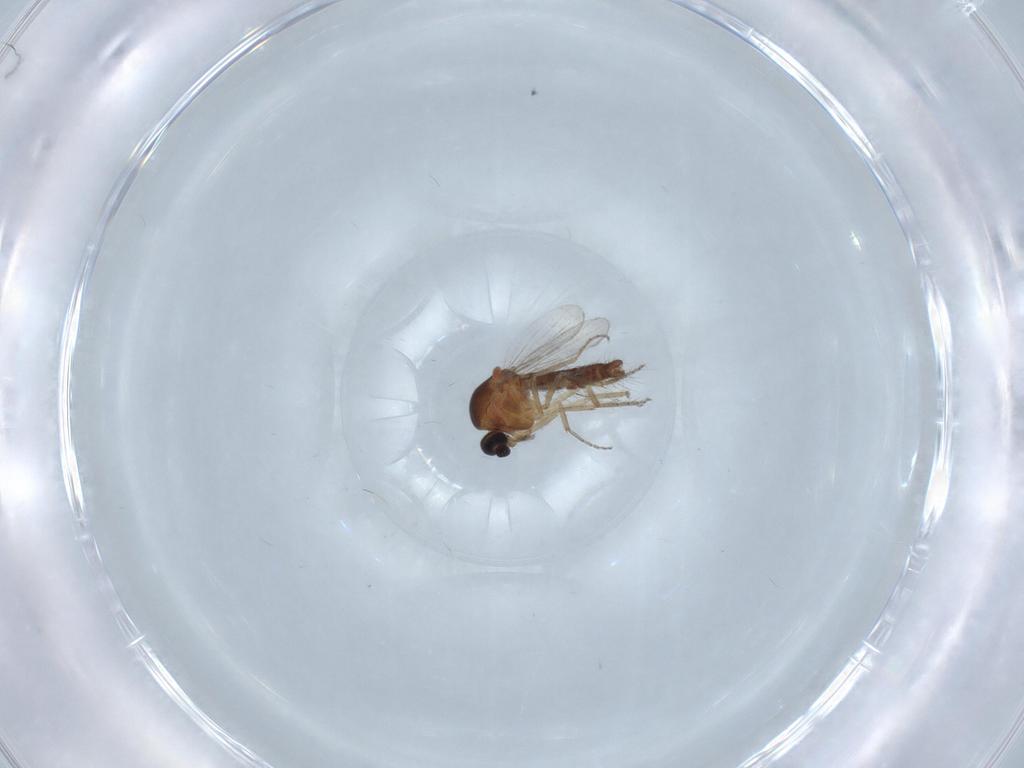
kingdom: Animalia
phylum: Arthropoda
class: Insecta
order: Diptera
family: Ceratopogonidae
